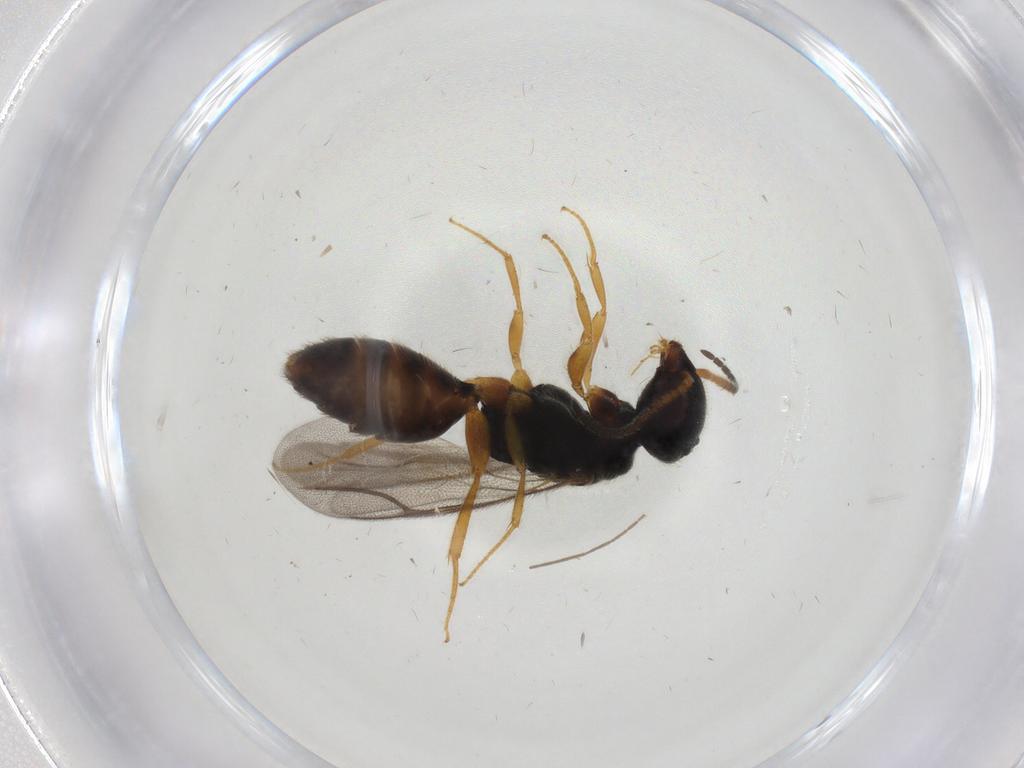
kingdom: Animalia
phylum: Arthropoda
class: Insecta
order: Hymenoptera
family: Bethylidae
